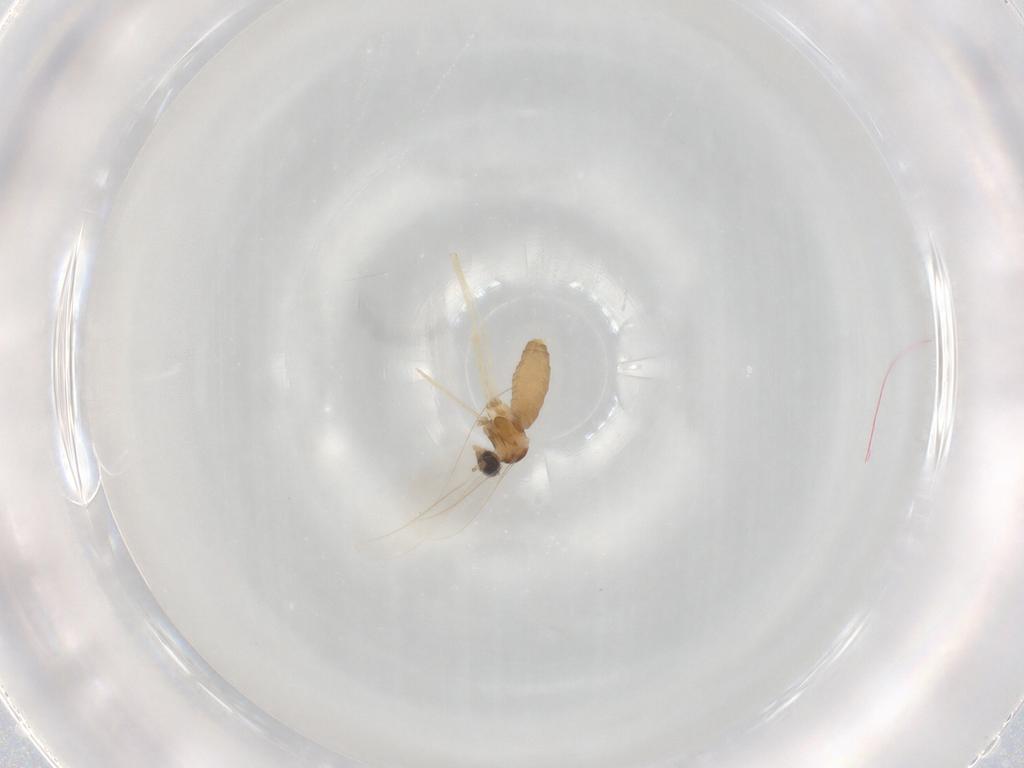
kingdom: Animalia
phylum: Arthropoda
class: Insecta
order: Diptera
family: Cecidomyiidae
